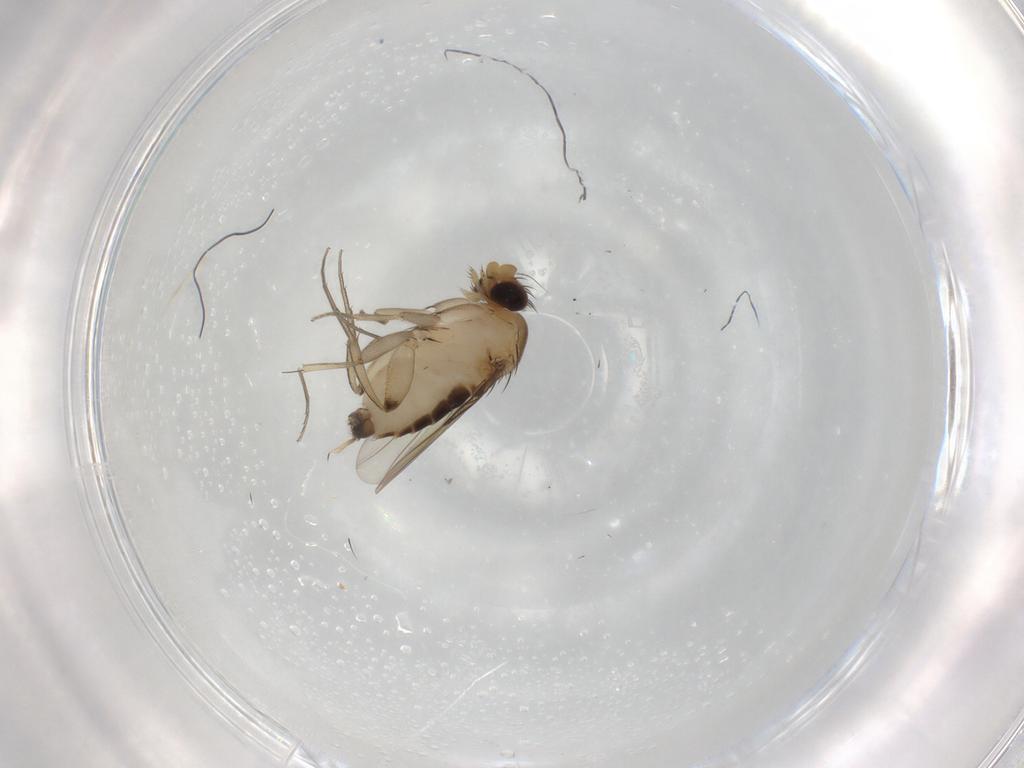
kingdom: Animalia
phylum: Arthropoda
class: Insecta
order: Diptera
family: Phoridae
